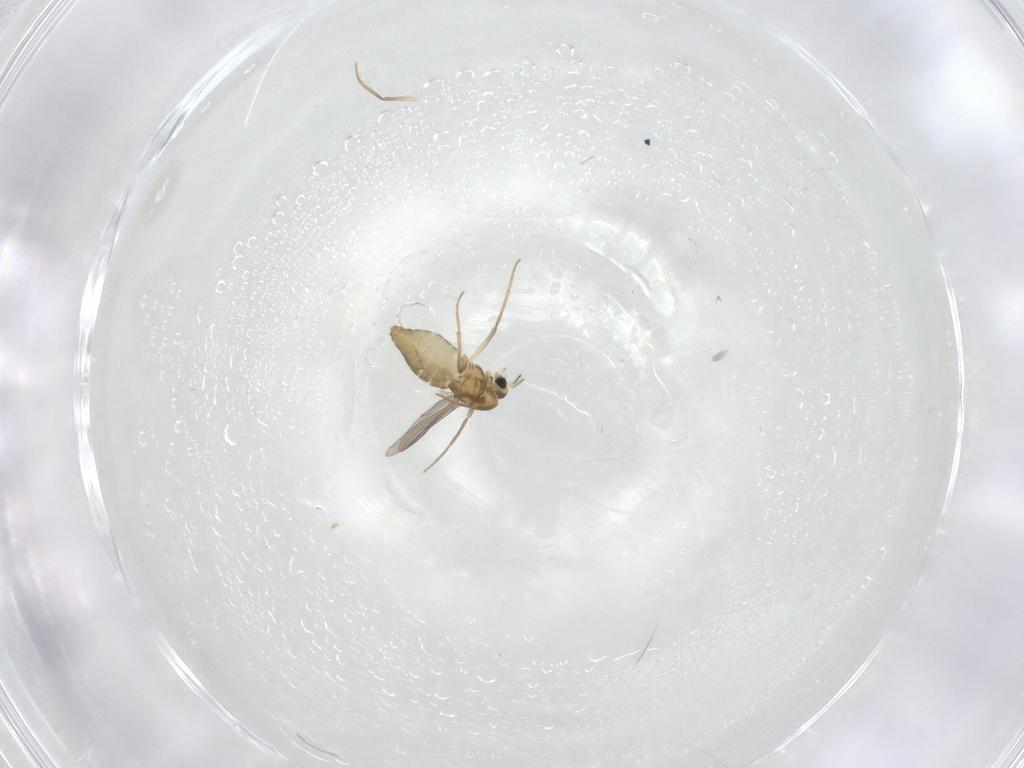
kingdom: Animalia
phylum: Arthropoda
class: Insecta
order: Diptera
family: Chironomidae
